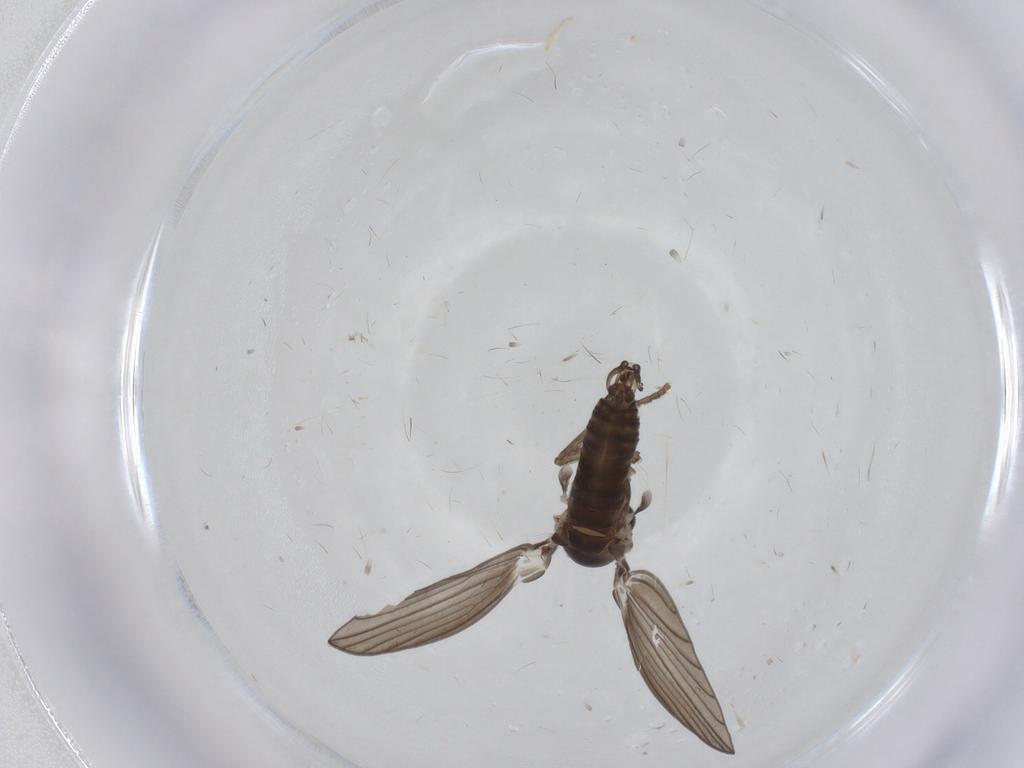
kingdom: Animalia
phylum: Arthropoda
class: Insecta
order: Diptera
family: Psychodidae
